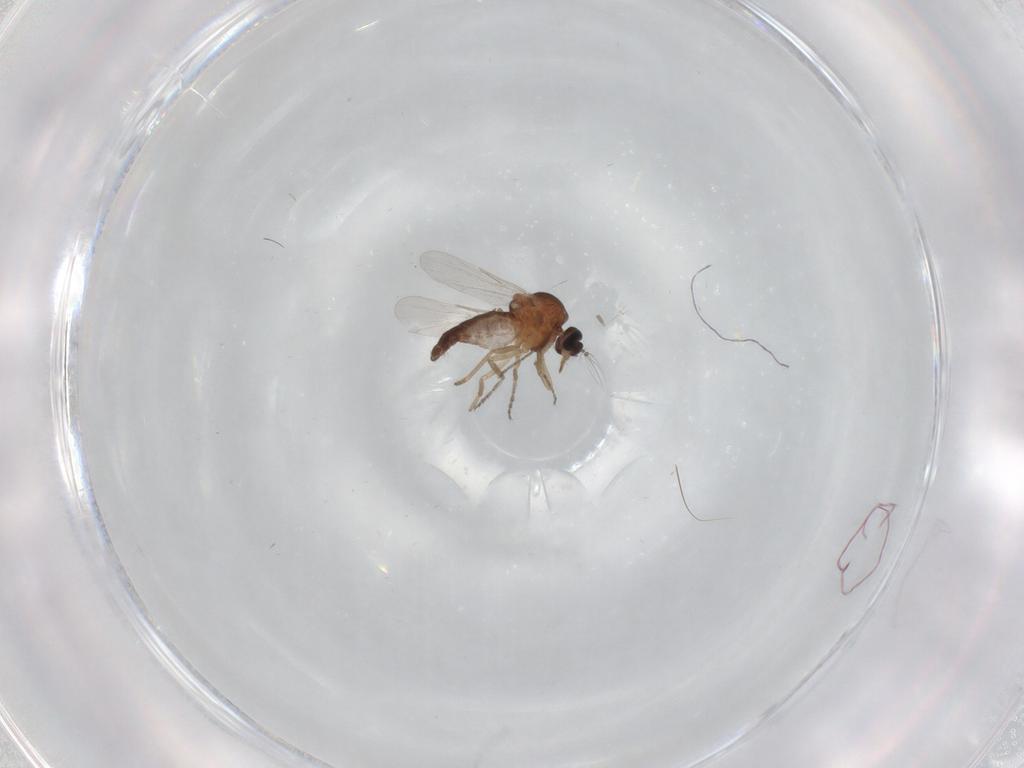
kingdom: Animalia
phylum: Arthropoda
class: Insecta
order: Diptera
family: Ceratopogonidae
